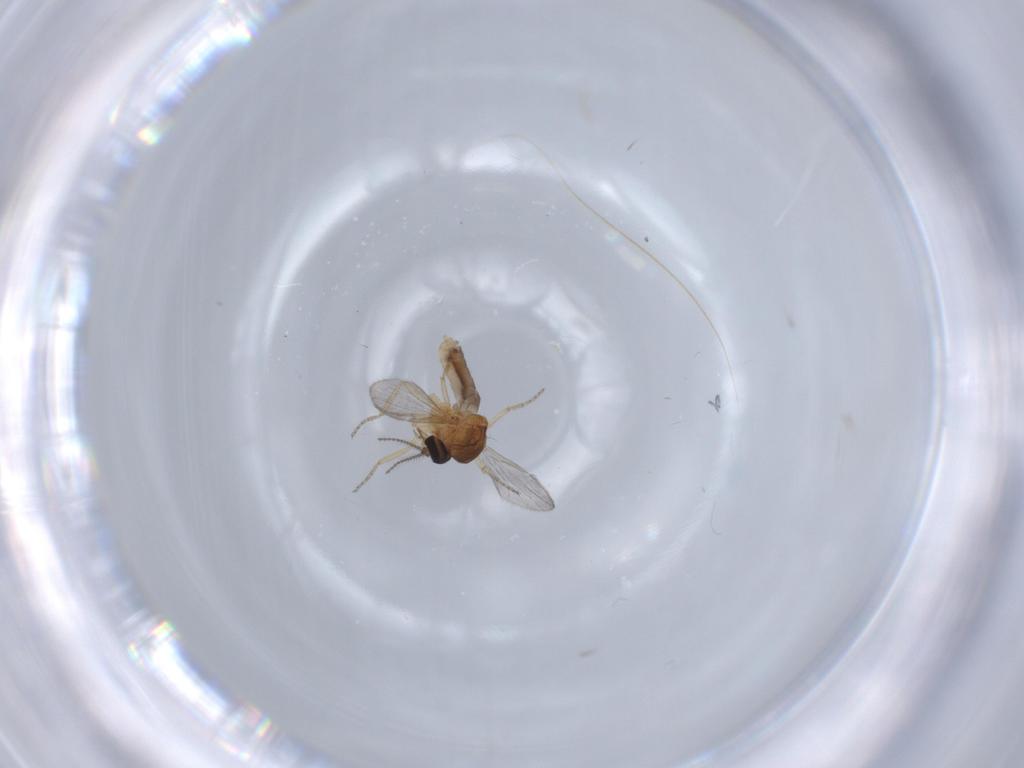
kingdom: Animalia
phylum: Arthropoda
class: Insecta
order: Diptera
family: Ceratopogonidae
